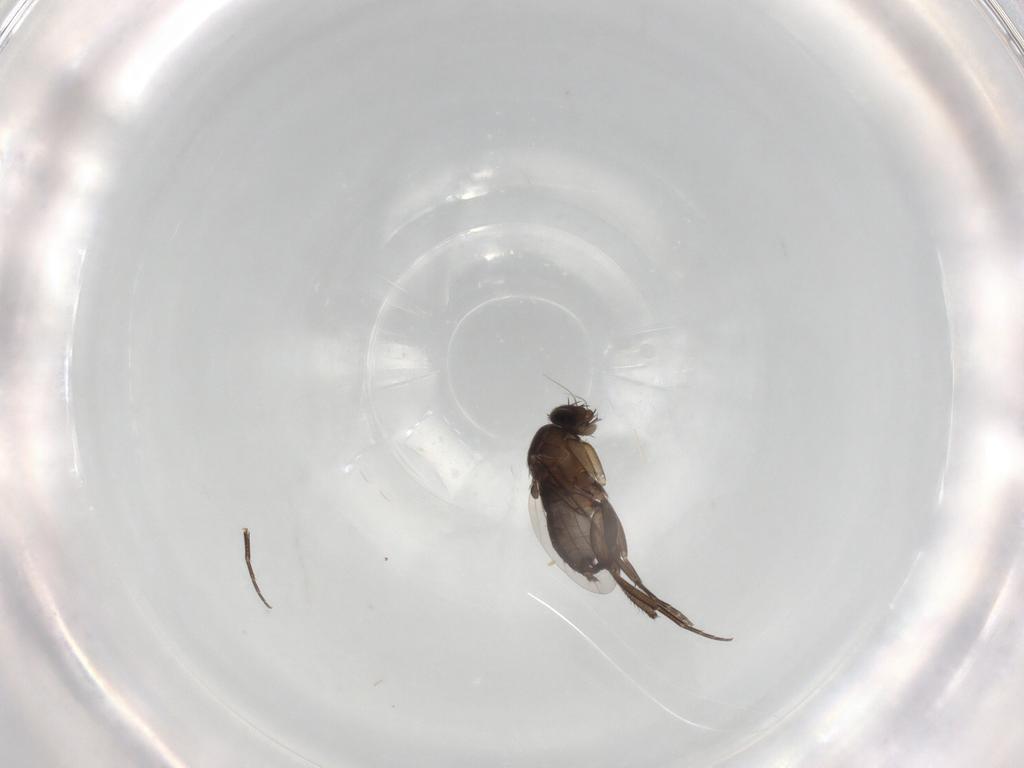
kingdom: Animalia
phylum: Arthropoda
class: Insecta
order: Diptera
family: Phoridae
